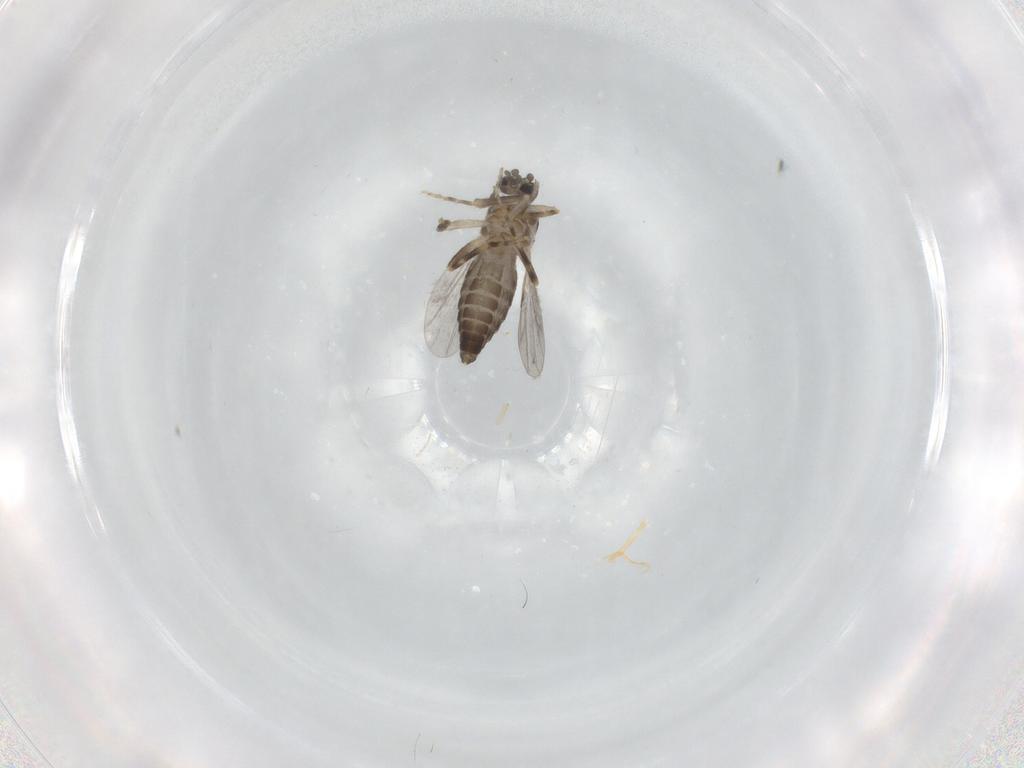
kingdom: Animalia
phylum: Arthropoda
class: Insecta
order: Diptera
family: Ceratopogonidae
